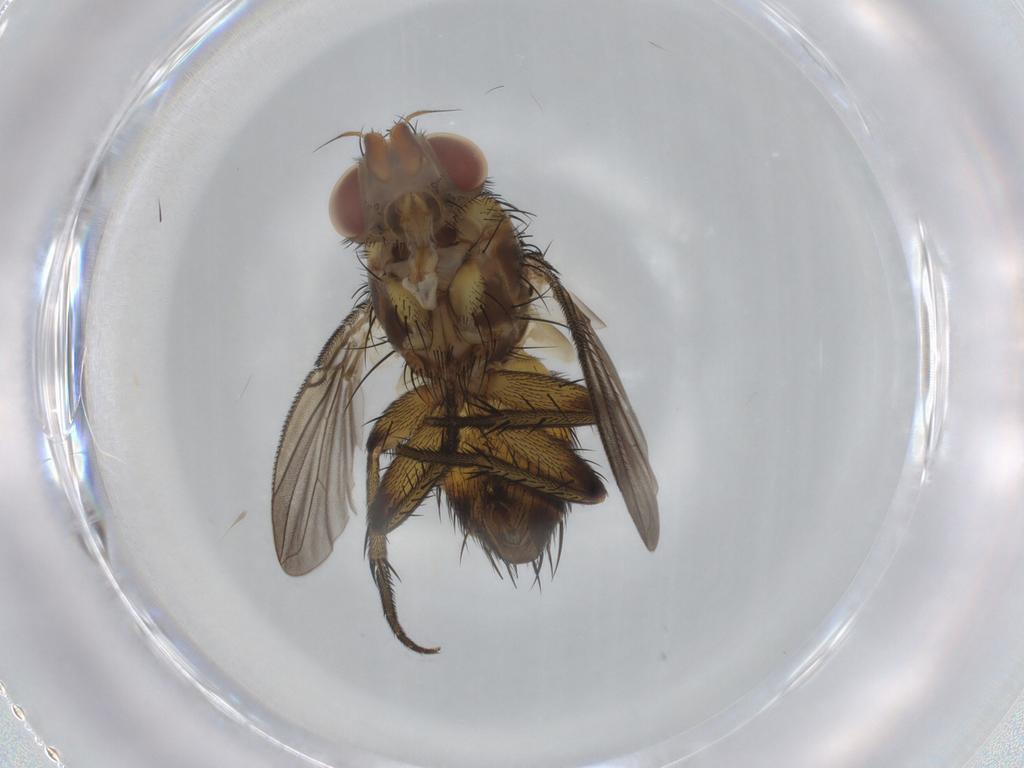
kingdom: Animalia
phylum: Arthropoda
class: Insecta
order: Diptera
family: Tachinidae
